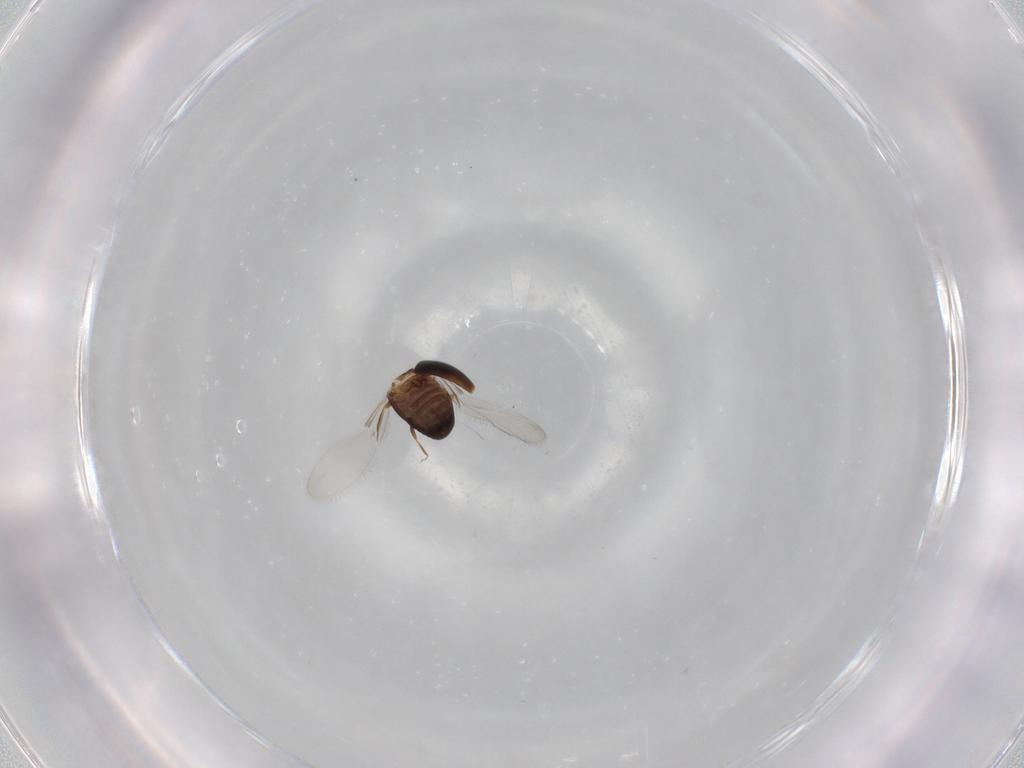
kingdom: Animalia
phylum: Arthropoda
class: Insecta
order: Coleoptera
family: Corylophidae
